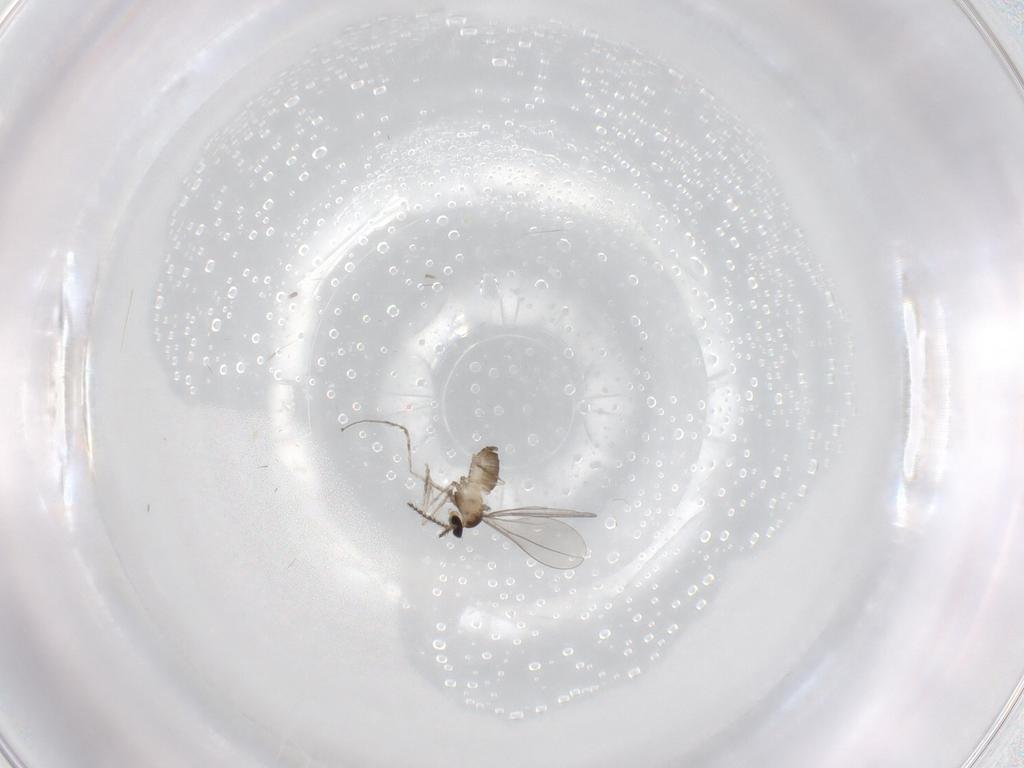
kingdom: Animalia
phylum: Arthropoda
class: Insecta
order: Diptera
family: Cecidomyiidae
